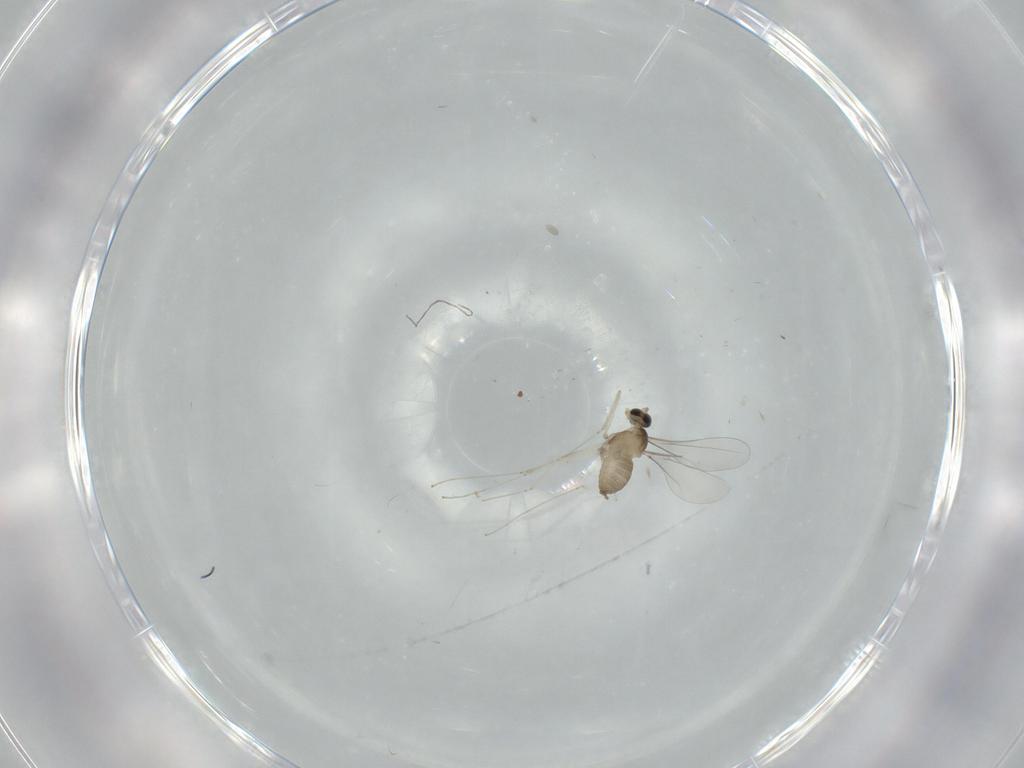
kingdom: Animalia
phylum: Arthropoda
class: Insecta
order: Diptera
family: Cecidomyiidae
